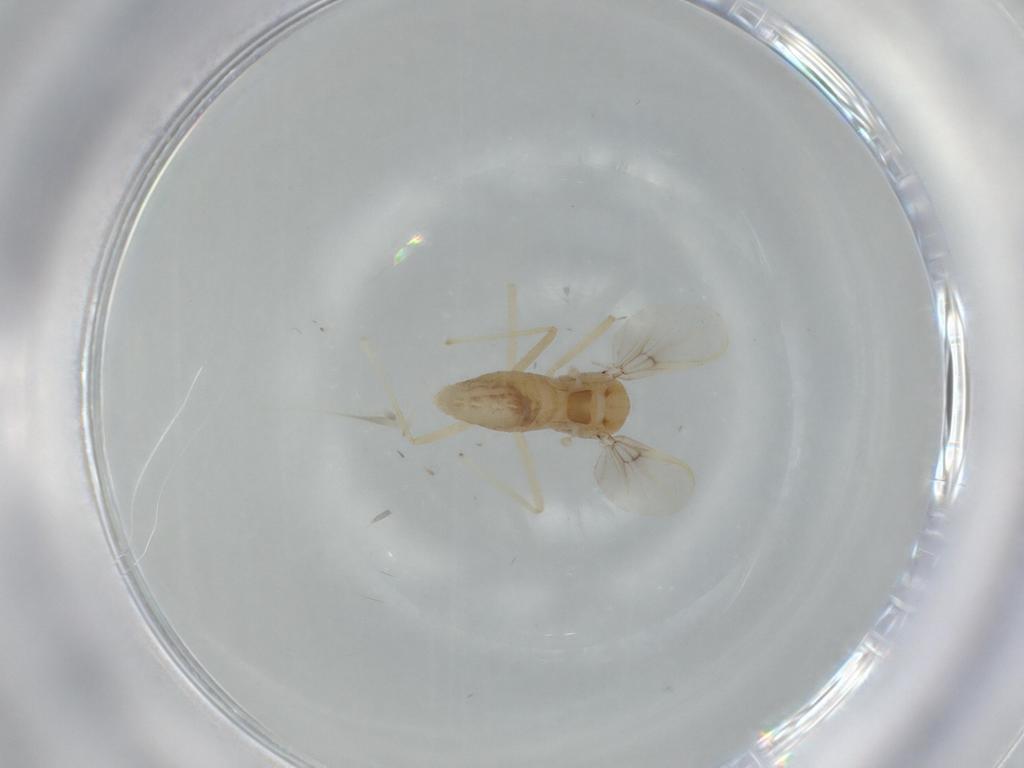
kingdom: Animalia
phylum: Arthropoda
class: Insecta
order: Diptera
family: Chironomidae
